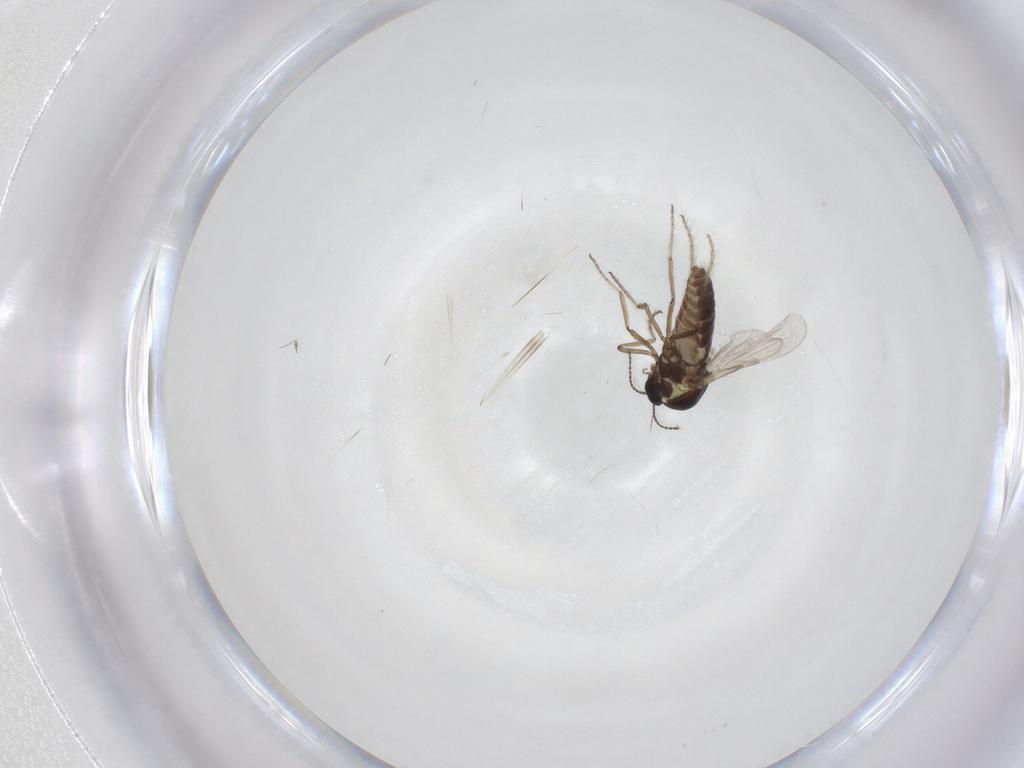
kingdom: Animalia
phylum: Arthropoda
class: Insecta
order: Diptera
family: Ceratopogonidae
